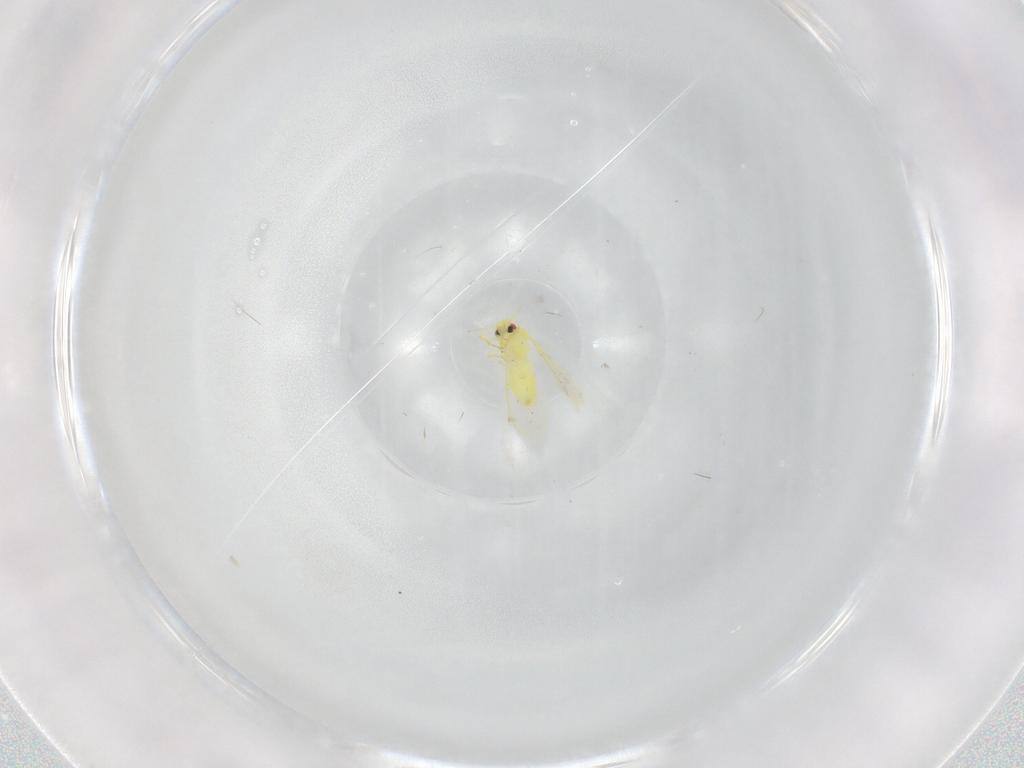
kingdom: Animalia
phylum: Arthropoda
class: Insecta
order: Hemiptera
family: Aleyrodidae
